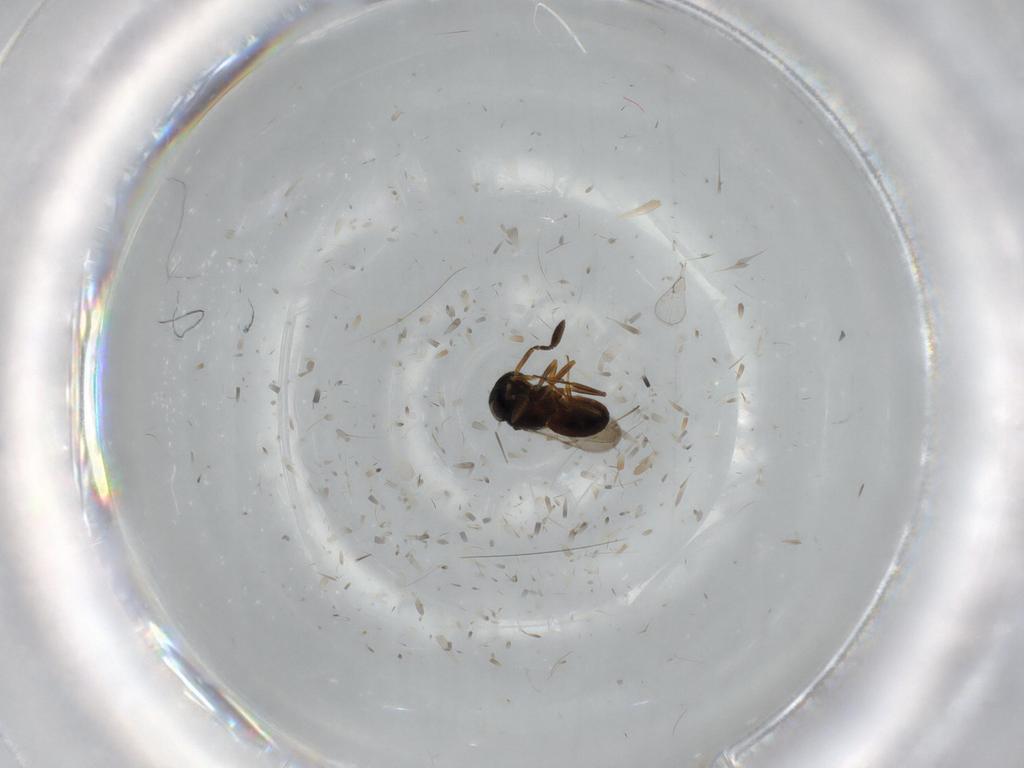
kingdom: Animalia
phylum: Arthropoda
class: Insecta
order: Coleoptera
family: Curculionidae
